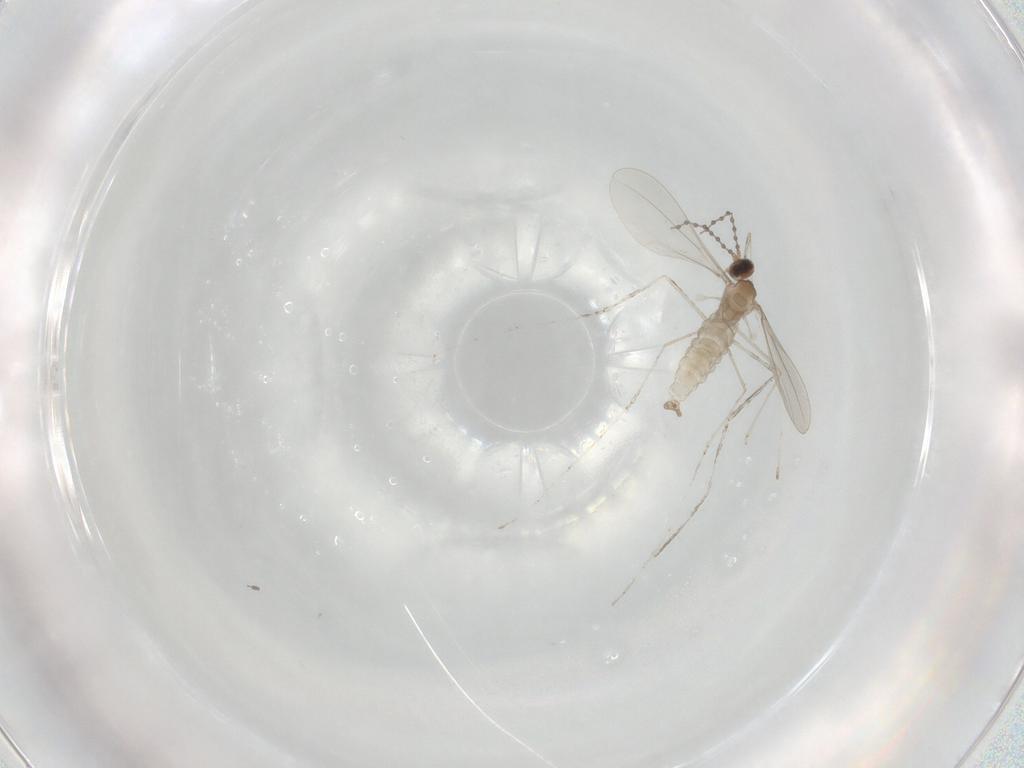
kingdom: Animalia
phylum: Arthropoda
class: Insecta
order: Diptera
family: Cecidomyiidae
